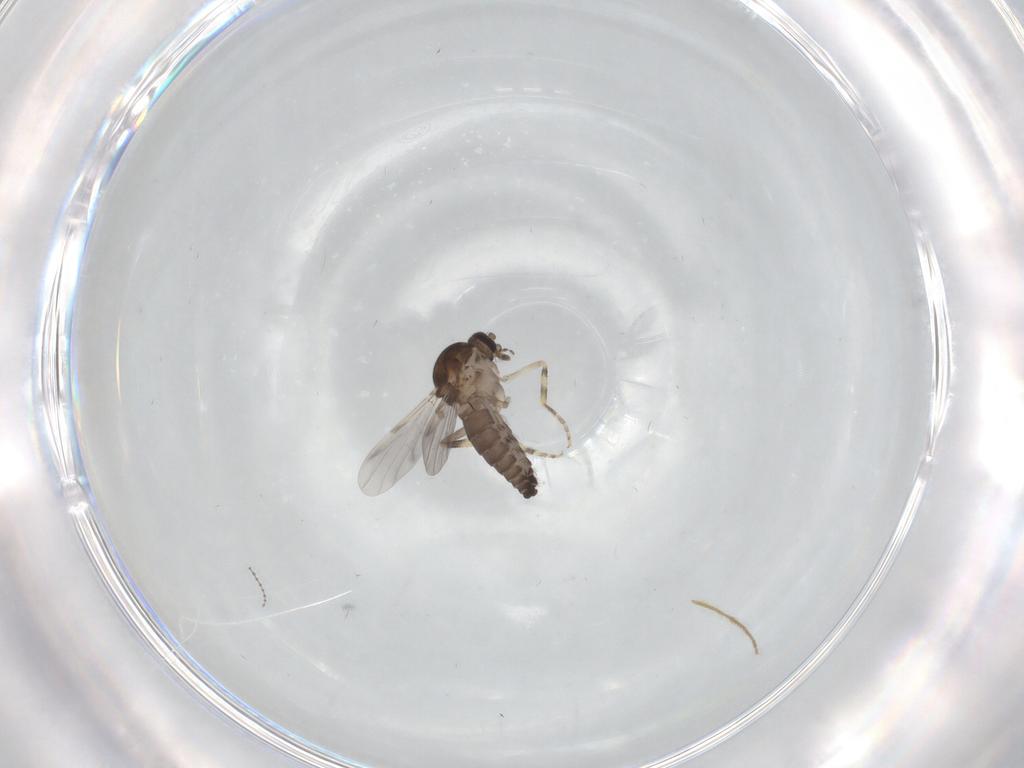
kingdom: Animalia
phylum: Arthropoda
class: Insecta
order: Diptera
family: Ceratopogonidae
